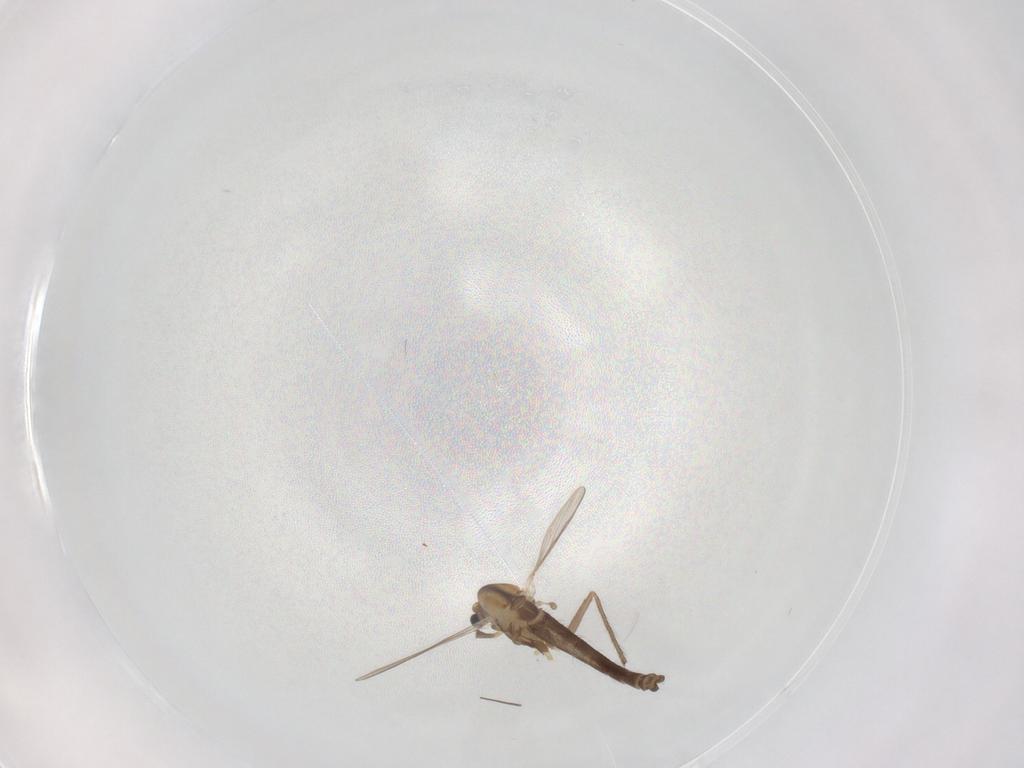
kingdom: Animalia
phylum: Arthropoda
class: Insecta
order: Diptera
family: Chironomidae
